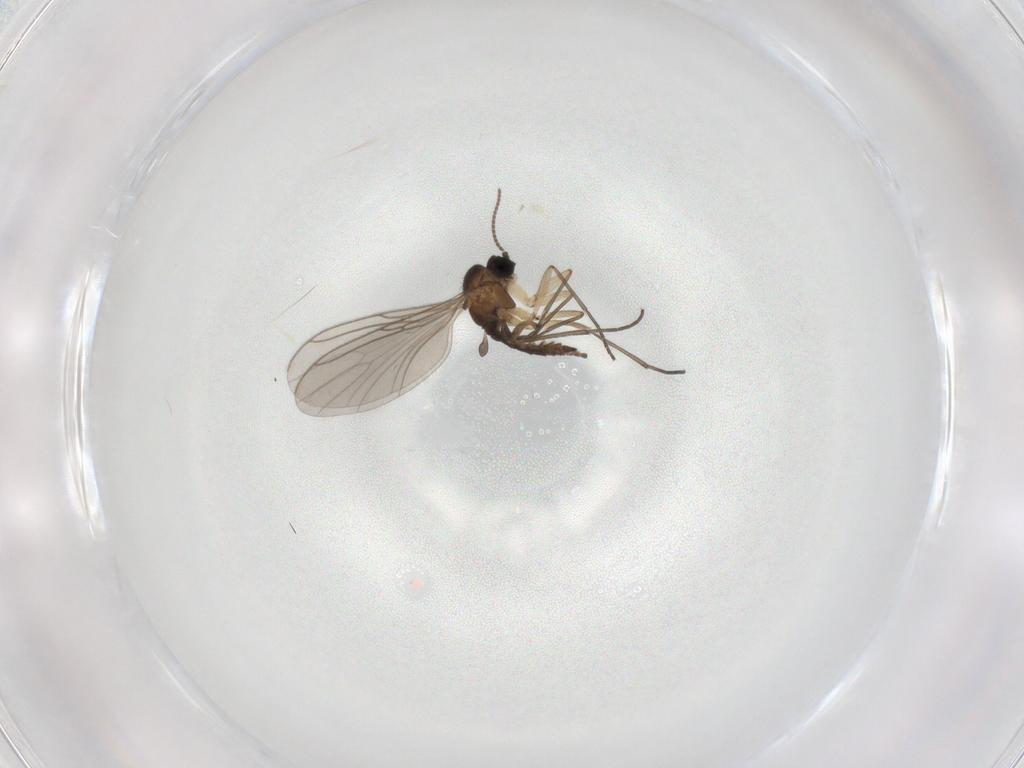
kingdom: Animalia
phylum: Arthropoda
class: Insecta
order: Diptera
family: Sciaridae
